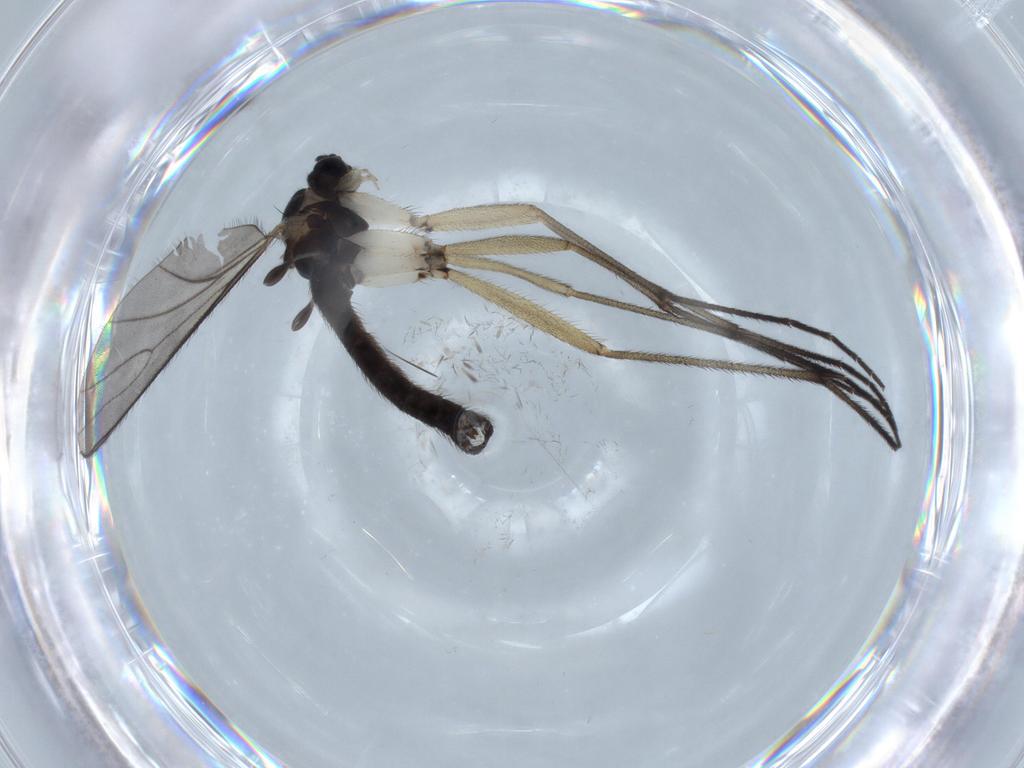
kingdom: Animalia
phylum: Arthropoda
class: Insecta
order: Diptera
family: Sciaridae
